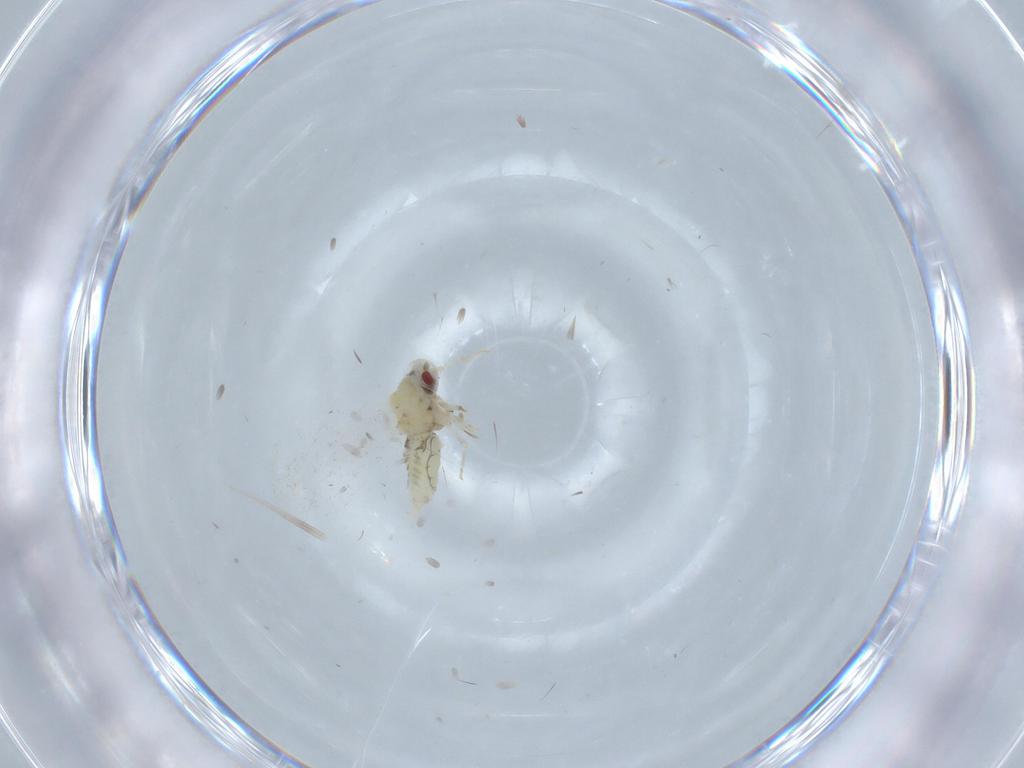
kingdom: Animalia
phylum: Arthropoda
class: Insecta
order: Hemiptera
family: Aleyrodidae
